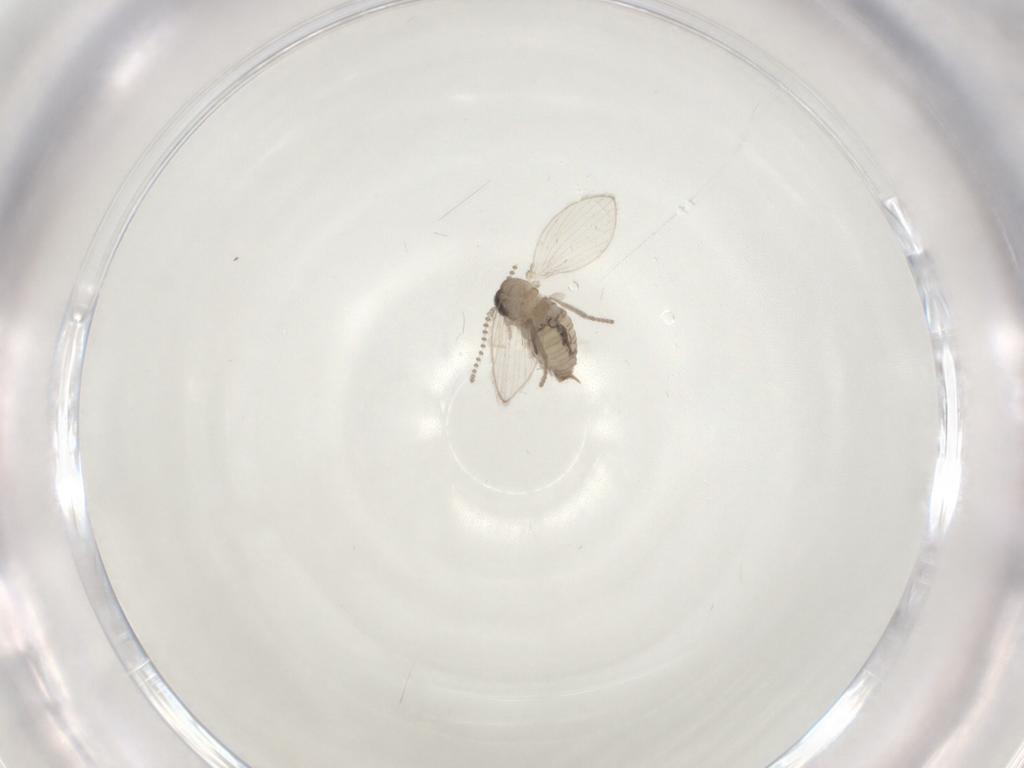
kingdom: Animalia
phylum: Arthropoda
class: Insecta
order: Diptera
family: Psychodidae
